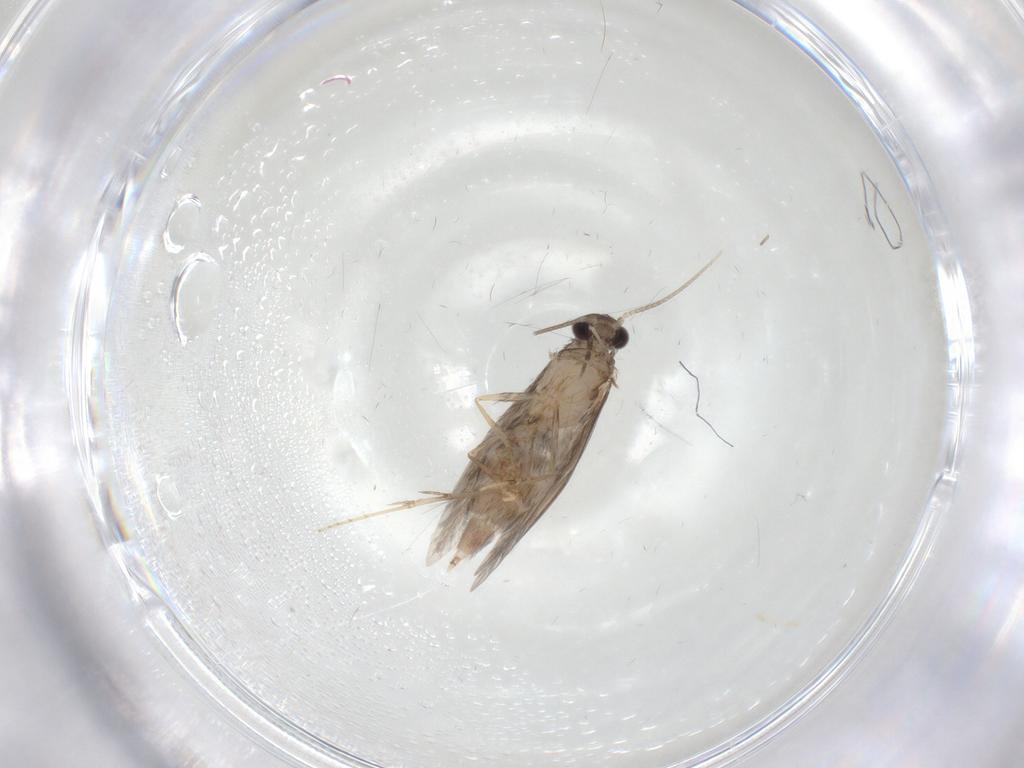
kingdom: Animalia
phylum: Arthropoda
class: Insecta
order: Trichoptera
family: Hydroptilidae
